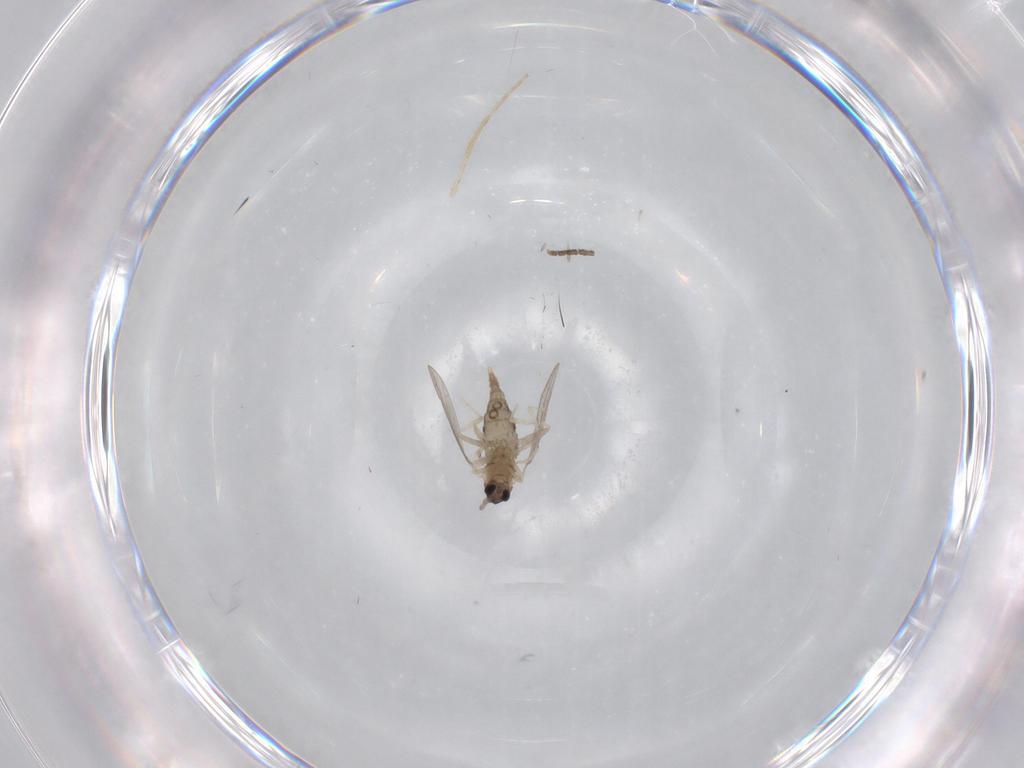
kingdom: Animalia
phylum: Arthropoda
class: Insecta
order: Diptera
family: Cecidomyiidae
